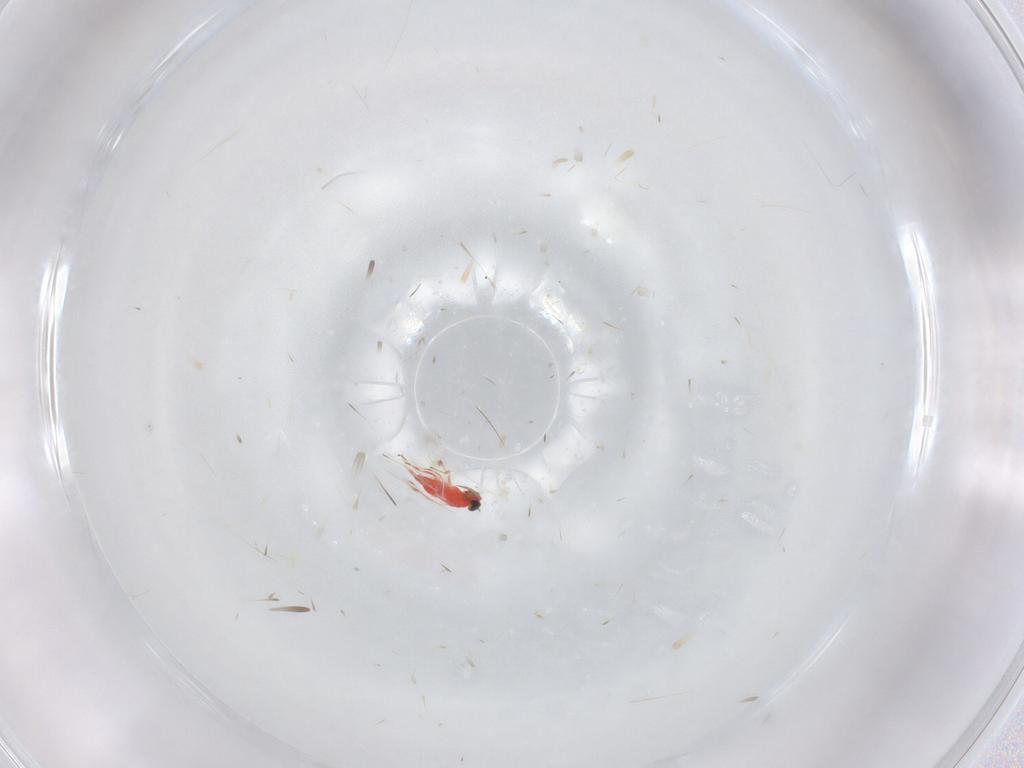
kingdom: Animalia
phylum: Arthropoda
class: Insecta
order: Hymenoptera
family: Trichogrammatidae
